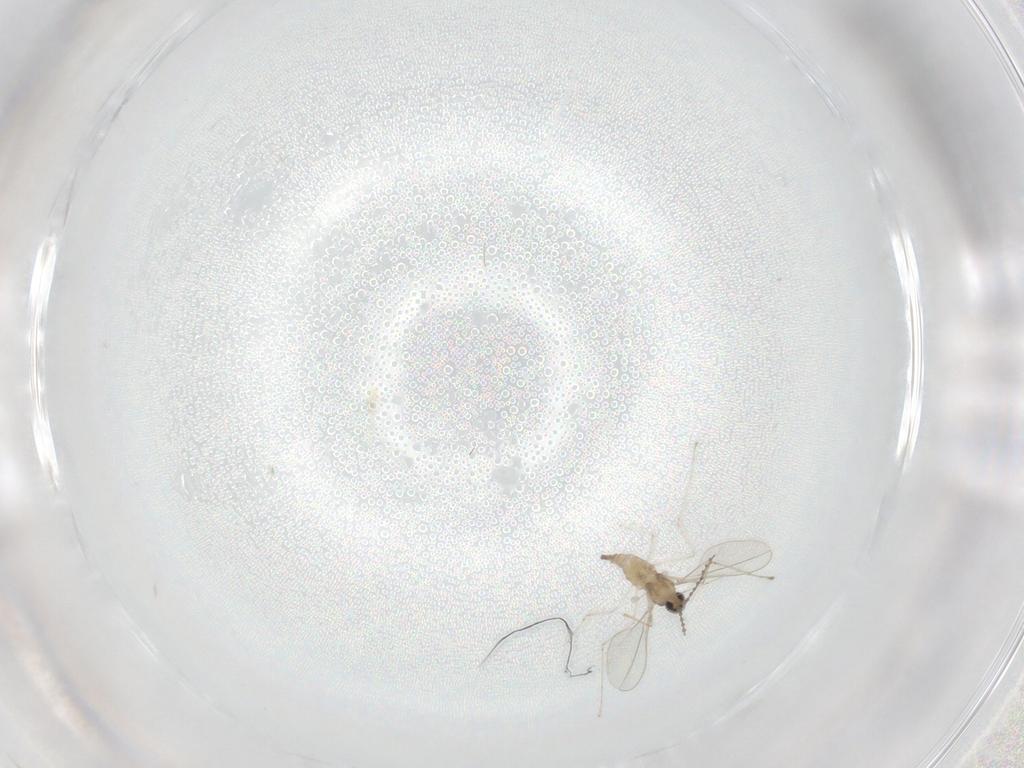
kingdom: Animalia
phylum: Arthropoda
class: Insecta
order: Diptera
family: Cecidomyiidae
